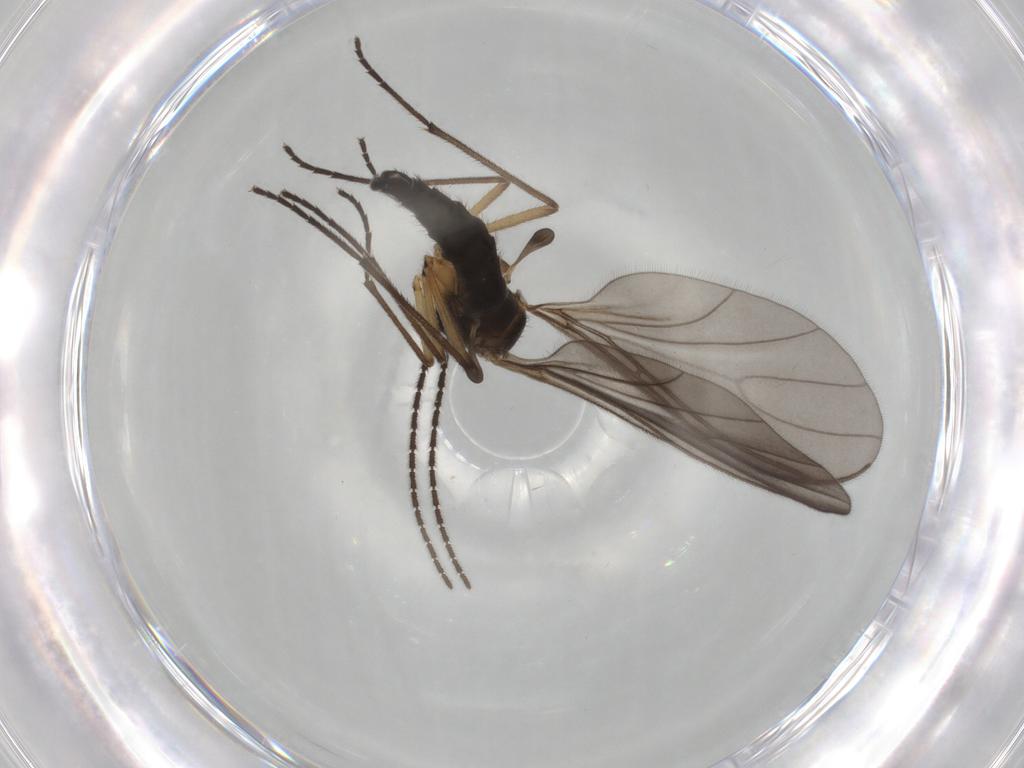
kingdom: Animalia
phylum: Arthropoda
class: Insecta
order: Diptera
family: Sciaridae
